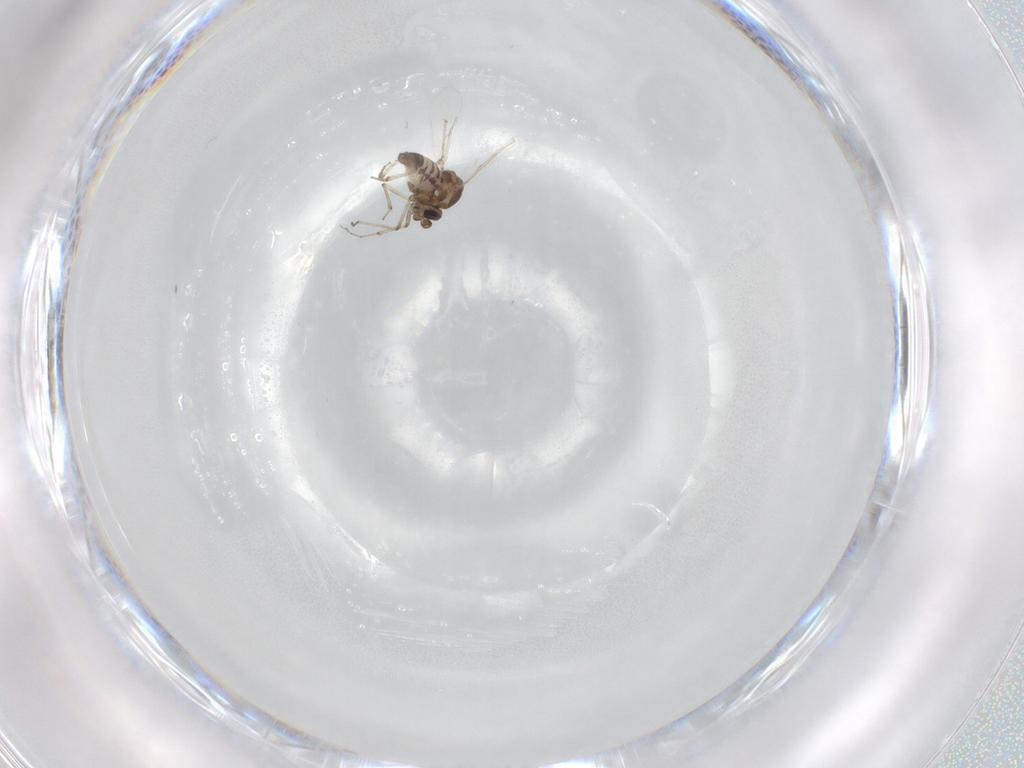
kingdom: Animalia
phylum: Arthropoda
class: Insecta
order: Diptera
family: Ceratopogonidae
